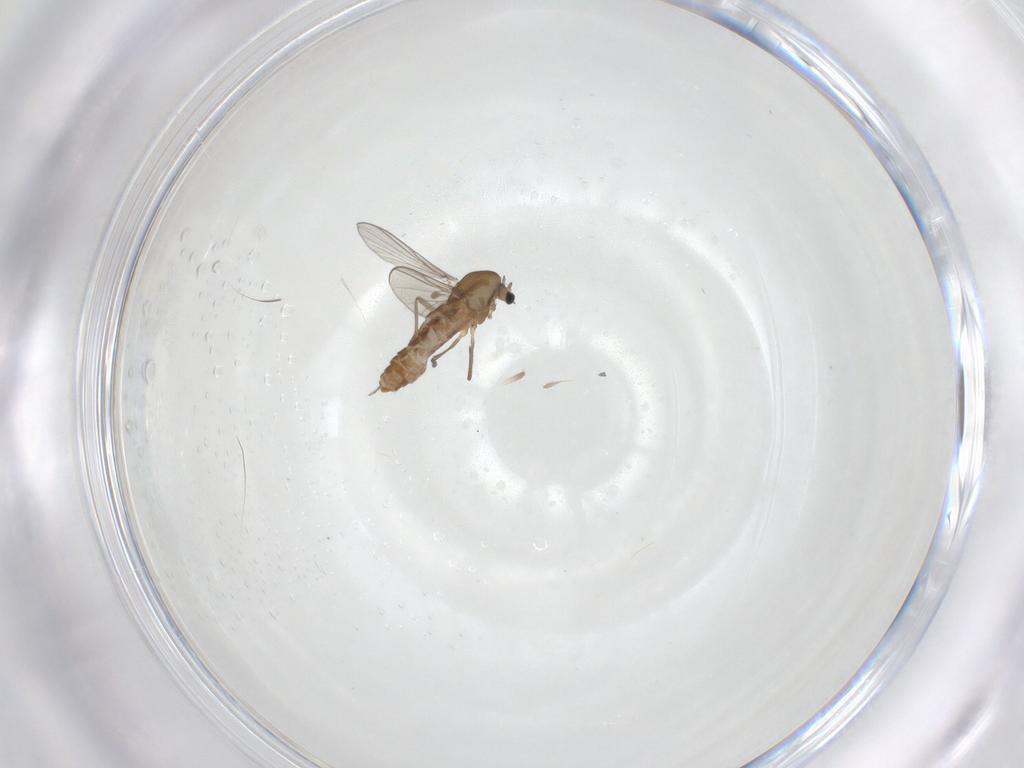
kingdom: Animalia
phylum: Arthropoda
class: Insecta
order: Diptera
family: Chironomidae
